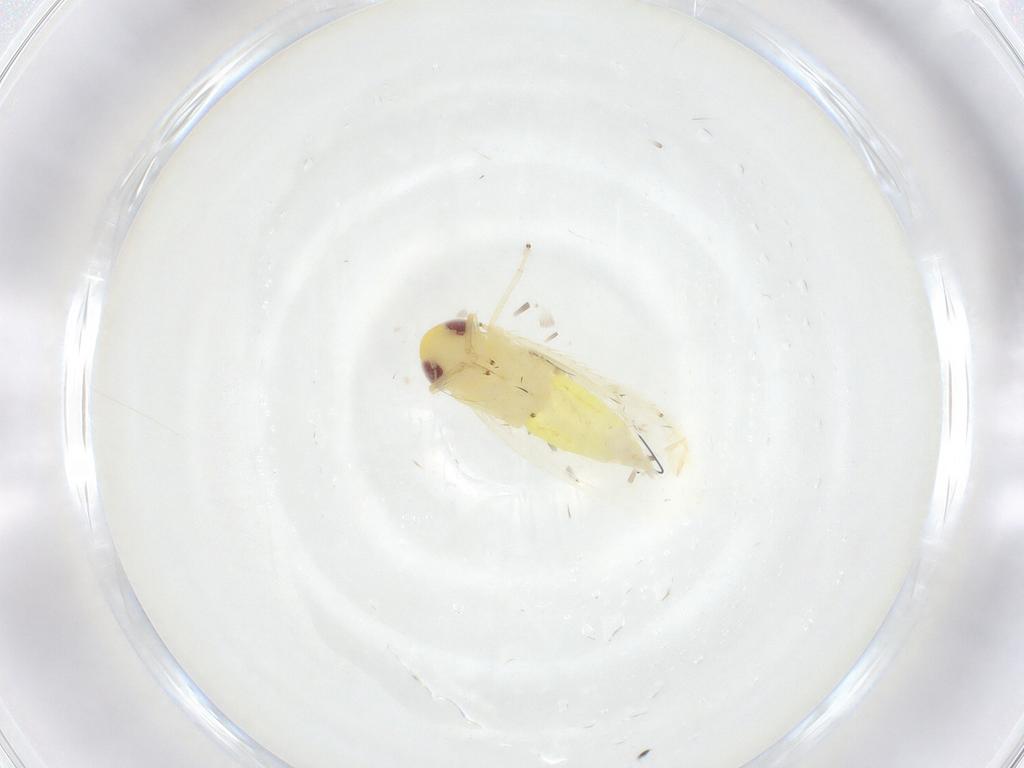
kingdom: Animalia
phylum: Arthropoda
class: Insecta
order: Hemiptera
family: Cicadellidae
